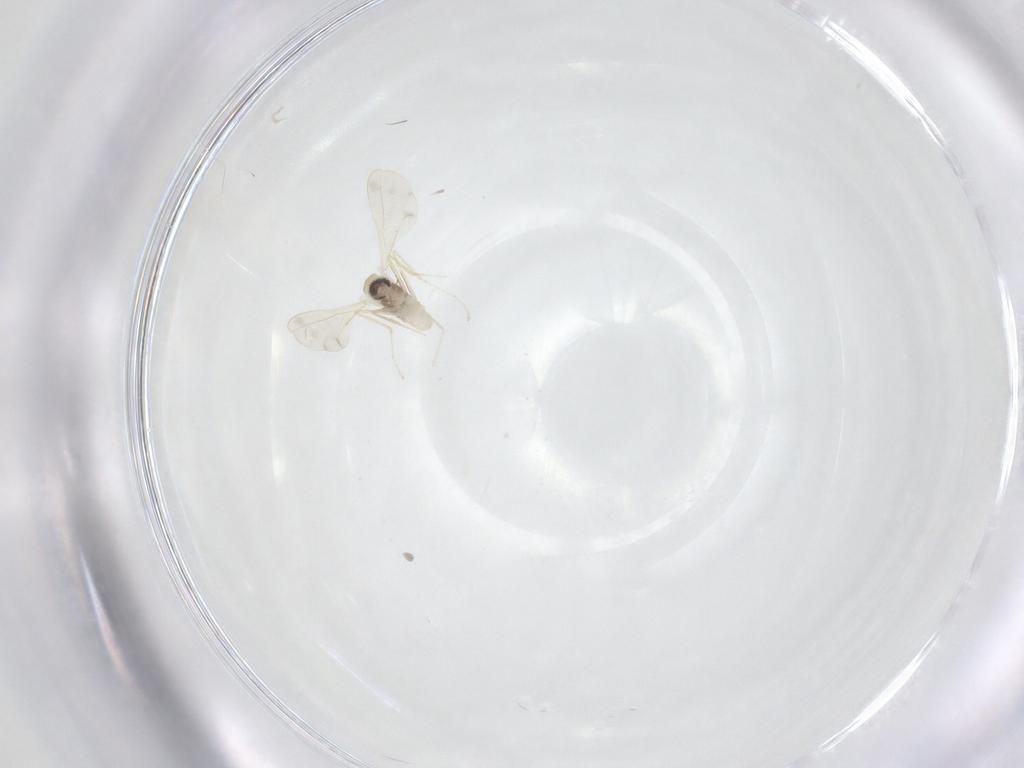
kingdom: Animalia
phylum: Arthropoda
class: Insecta
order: Diptera
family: Cecidomyiidae
